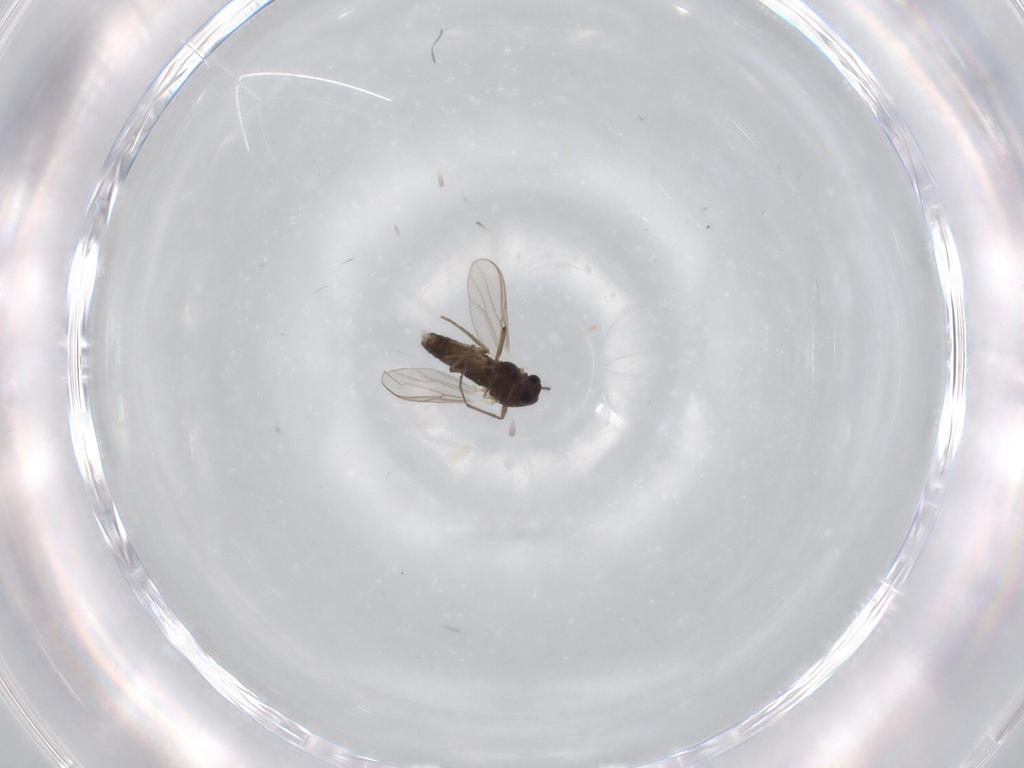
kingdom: Animalia
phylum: Arthropoda
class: Insecta
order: Diptera
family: Chironomidae
